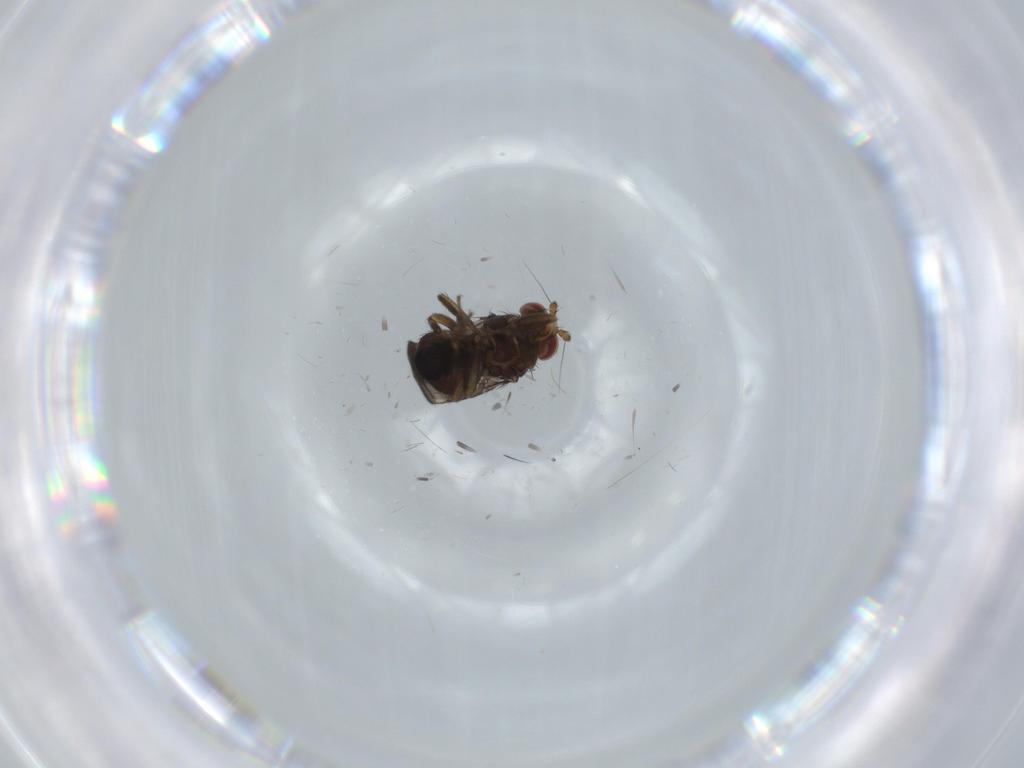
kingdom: Animalia
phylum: Arthropoda
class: Insecta
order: Diptera
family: Sphaeroceridae
